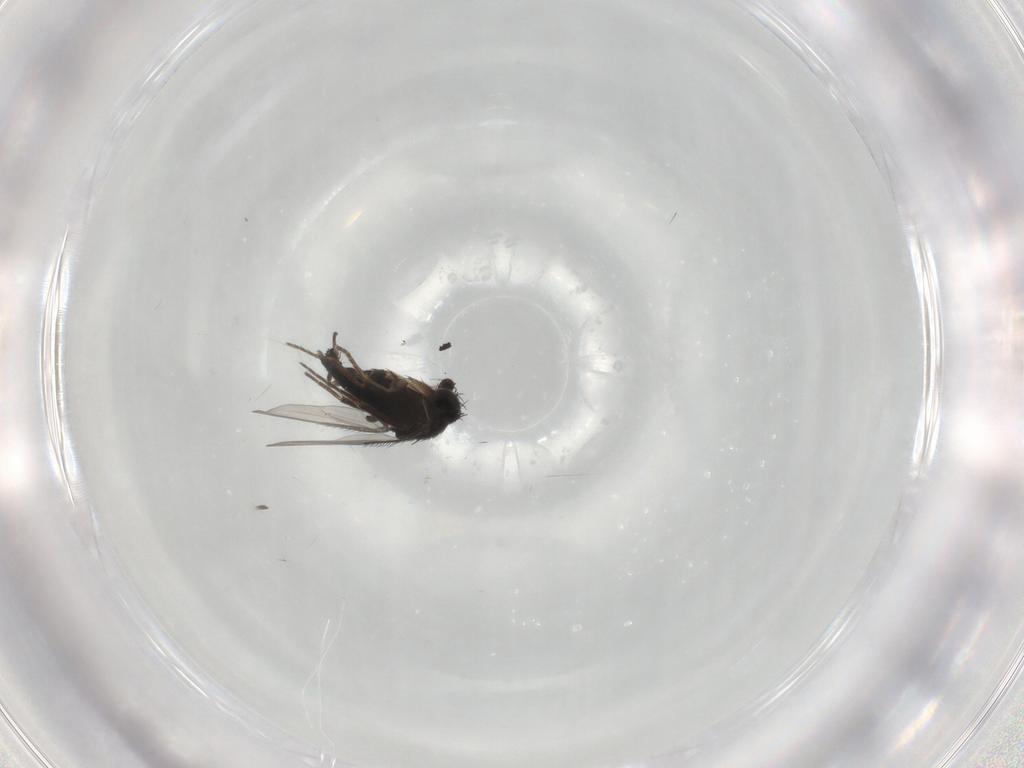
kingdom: Animalia
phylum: Arthropoda
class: Insecta
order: Diptera
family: Phoridae
